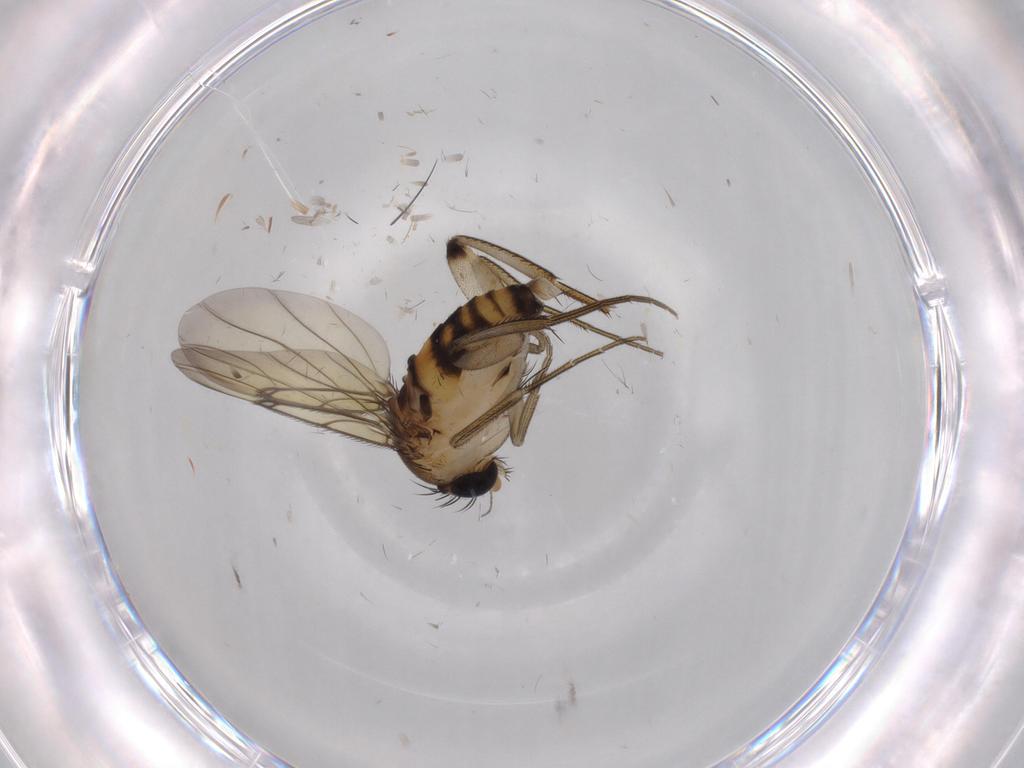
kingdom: Animalia
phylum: Arthropoda
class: Insecta
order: Diptera
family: Phoridae
